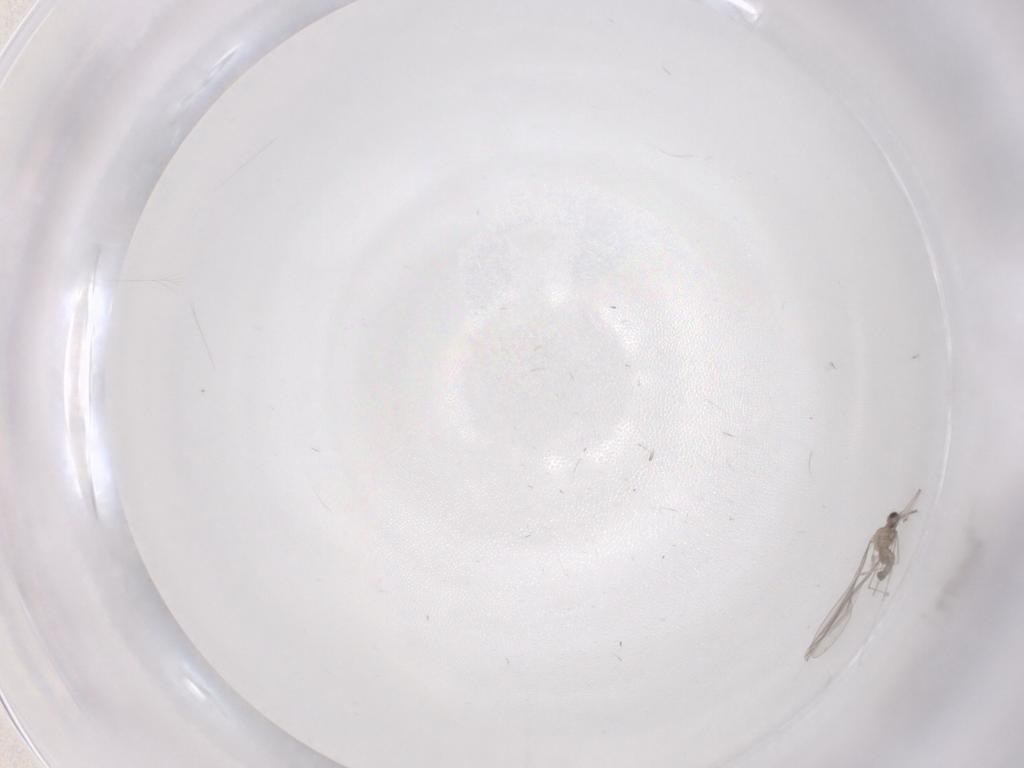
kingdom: Animalia
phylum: Arthropoda
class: Insecta
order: Diptera
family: Cecidomyiidae
